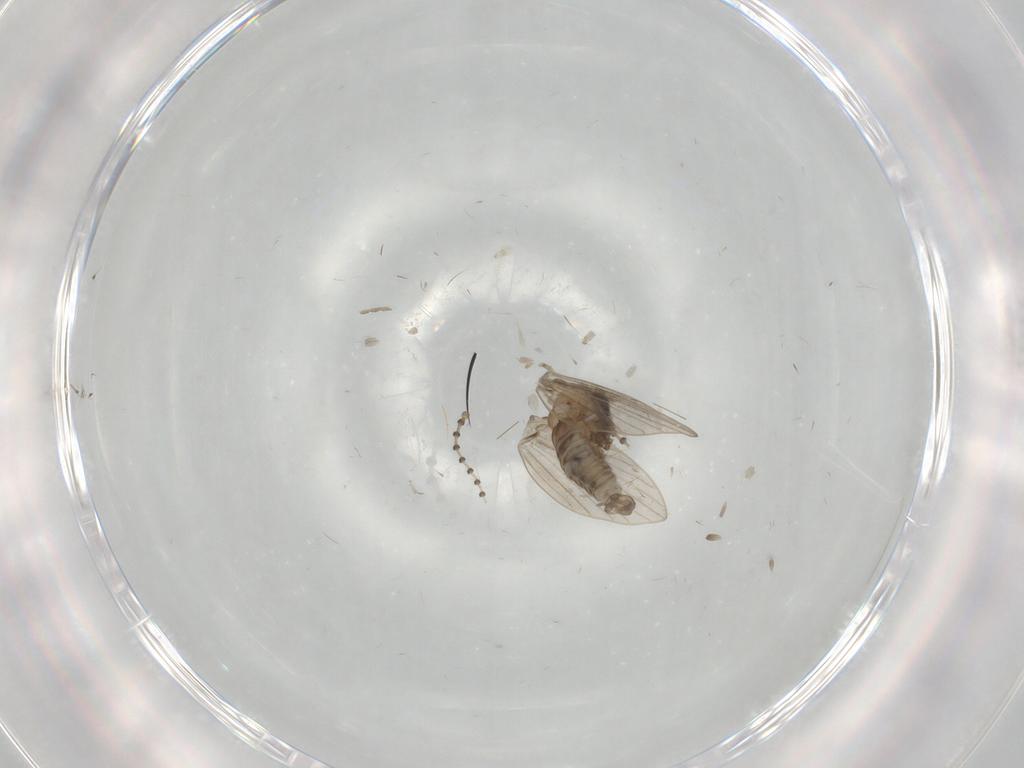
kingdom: Animalia
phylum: Arthropoda
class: Insecta
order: Diptera
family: Psychodidae
